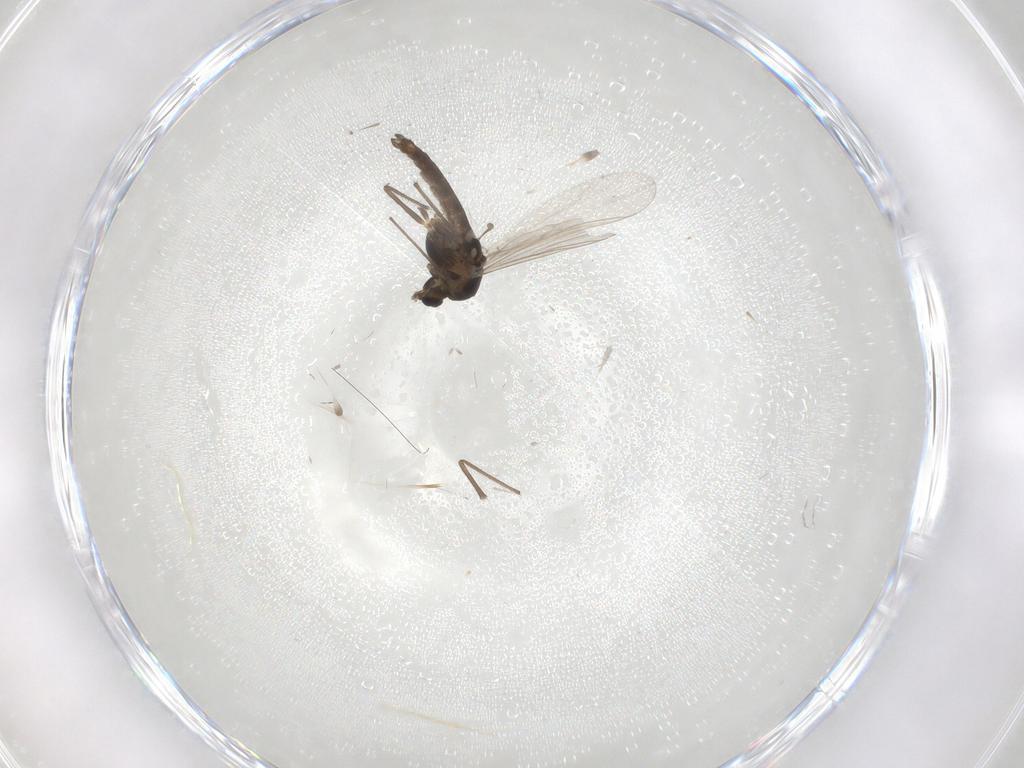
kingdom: Animalia
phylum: Arthropoda
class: Insecta
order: Diptera
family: Chironomidae
